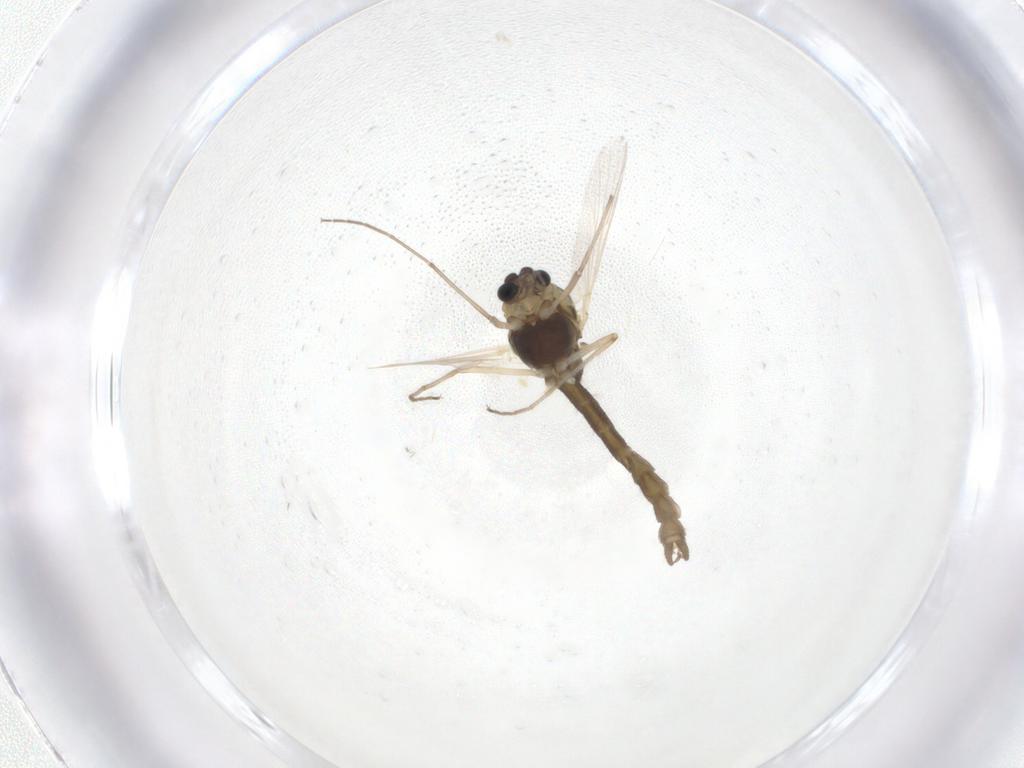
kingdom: Animalia
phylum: Arthropoda
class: Insecta
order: Diptera
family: Chironomidae
